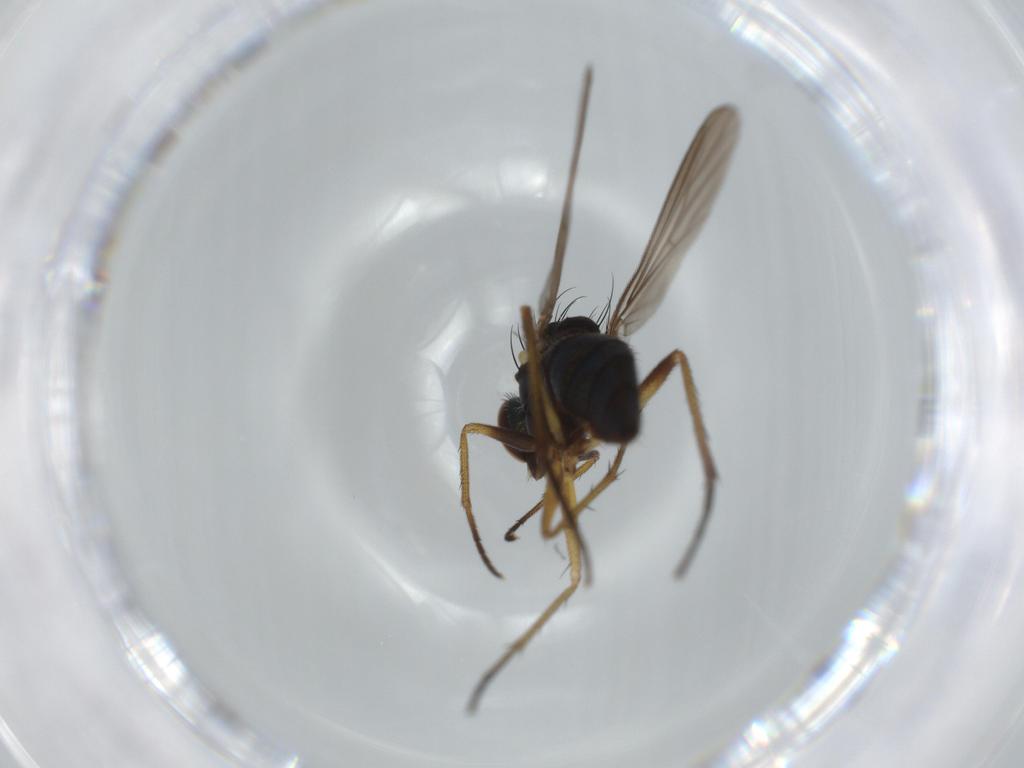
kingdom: Animalia
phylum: Arthropoda
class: Insecta
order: Diptera
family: Dolichopodidae
